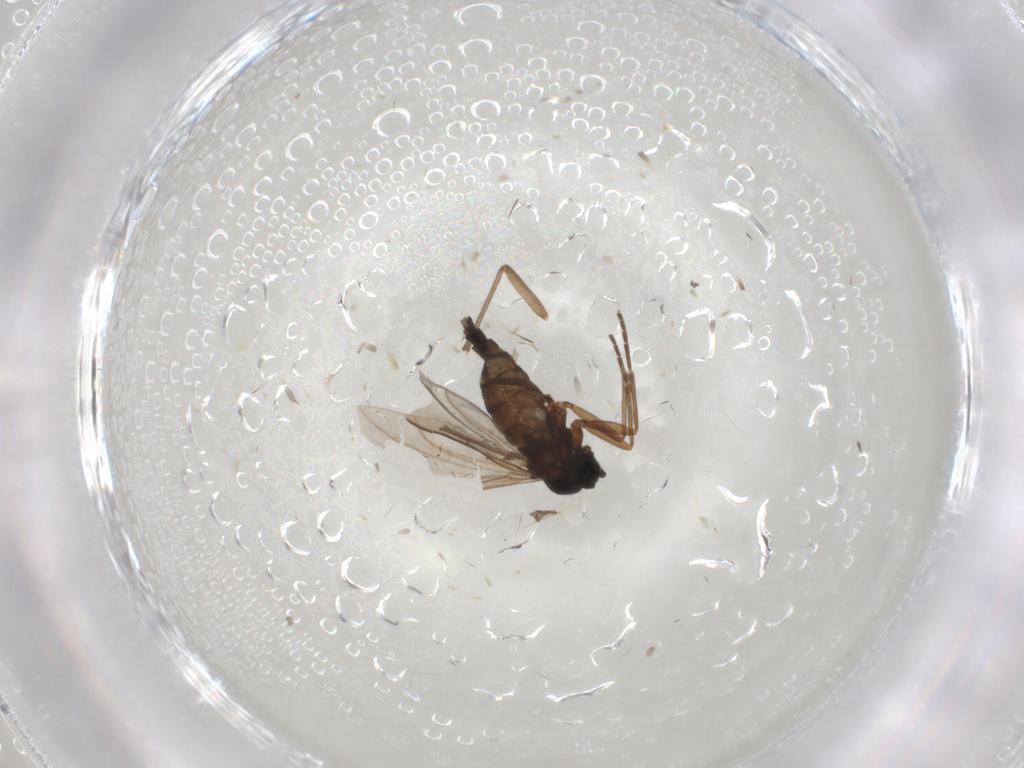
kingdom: Animalia
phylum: Arthropoda
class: Insecta
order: Diptera
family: Sciaridae
